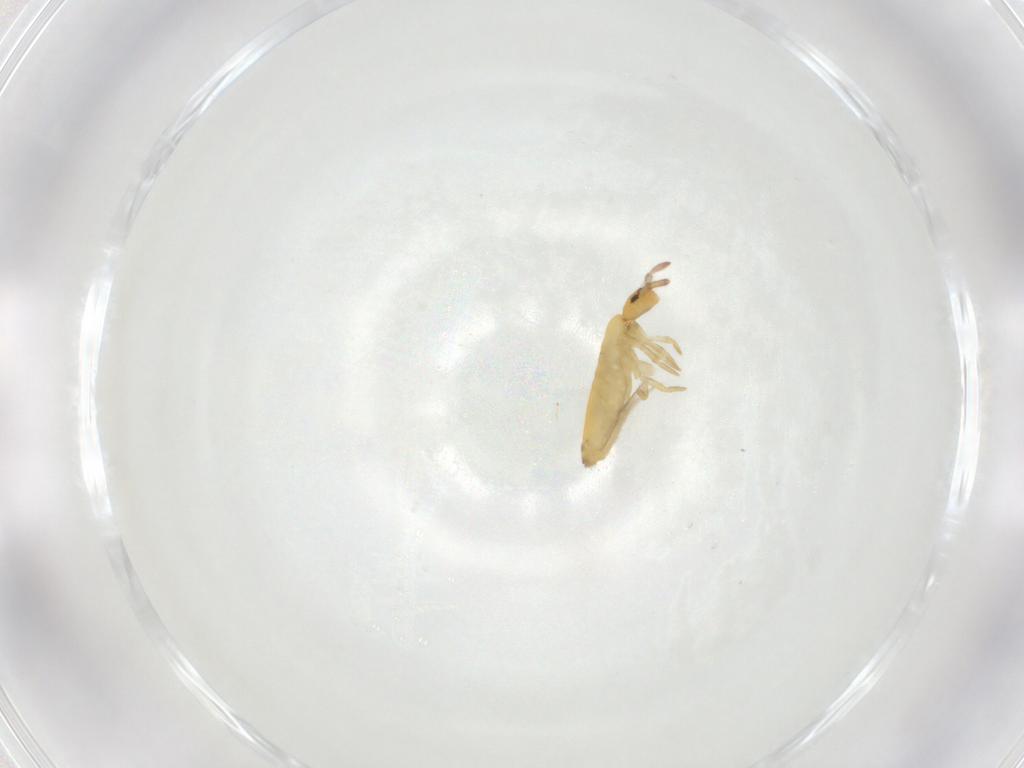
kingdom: Animalia
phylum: Arthropoda
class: Collembola
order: Entomobryomorpha
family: Entomobryidae
